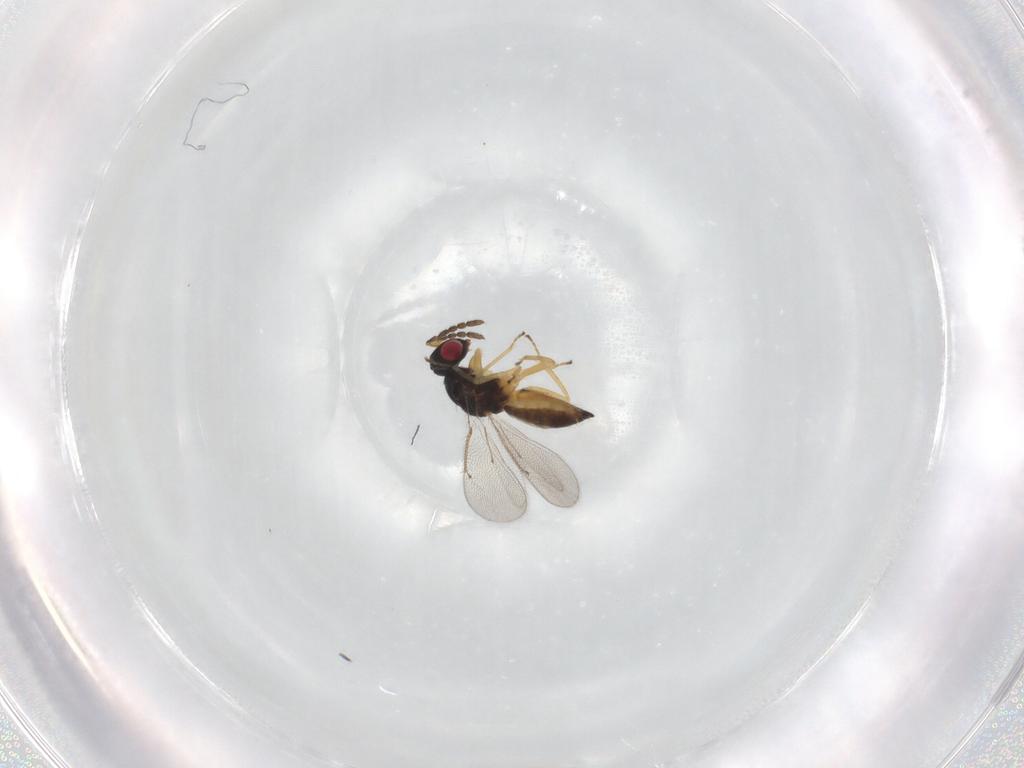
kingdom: Animalia
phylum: Arthropoda
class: Insecta
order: Hymenoptera
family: Eulophidae
